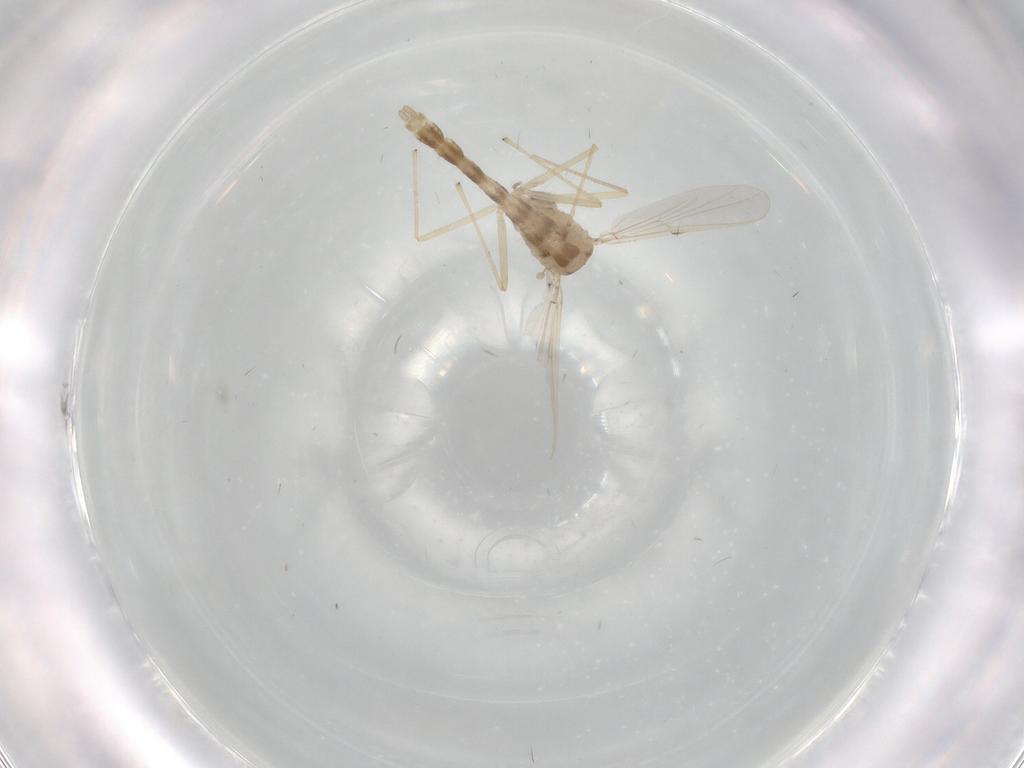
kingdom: Animalia
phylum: Arthropoda
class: Insecta
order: Diptera
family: Chironomidae
